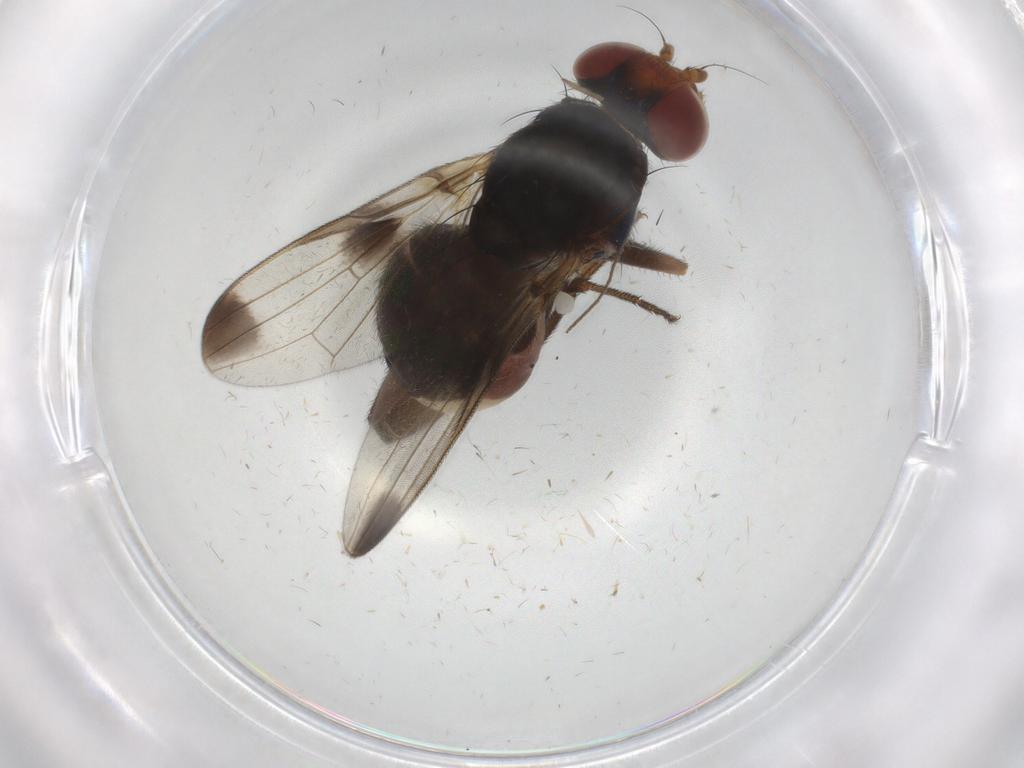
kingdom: Animalia
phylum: Arthropoda
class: Insecta
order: Diptera
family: Ulidiidae
